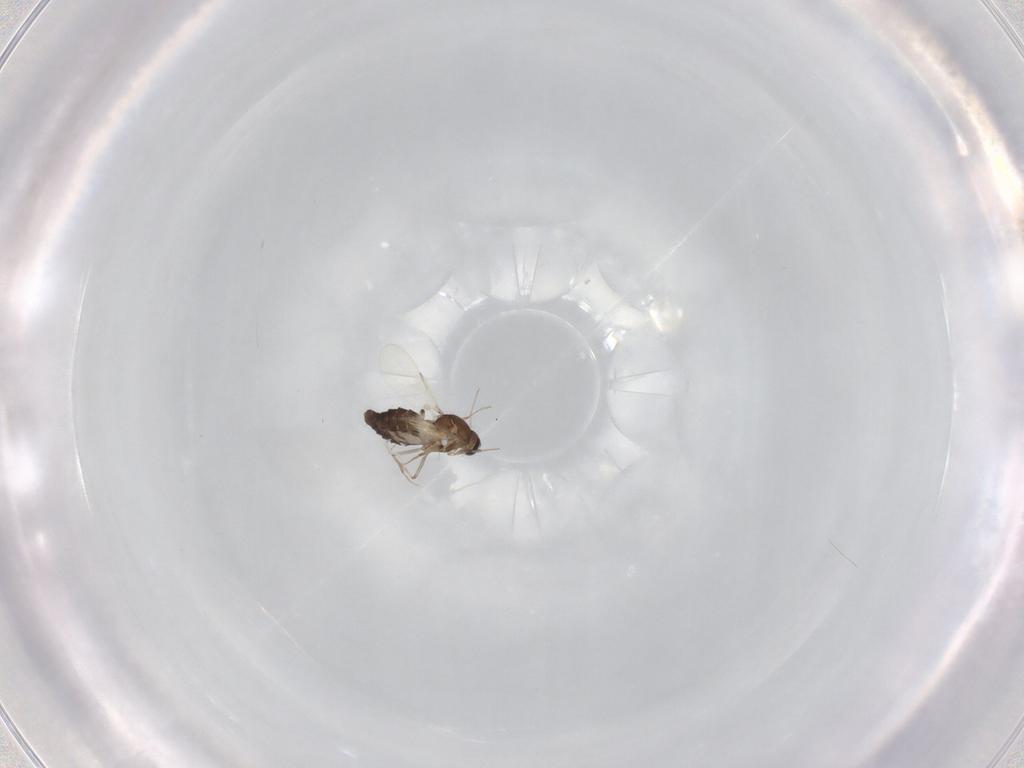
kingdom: Animalia
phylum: Arthropoda
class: Insecta
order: Diptera
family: Ceratopogonidae
